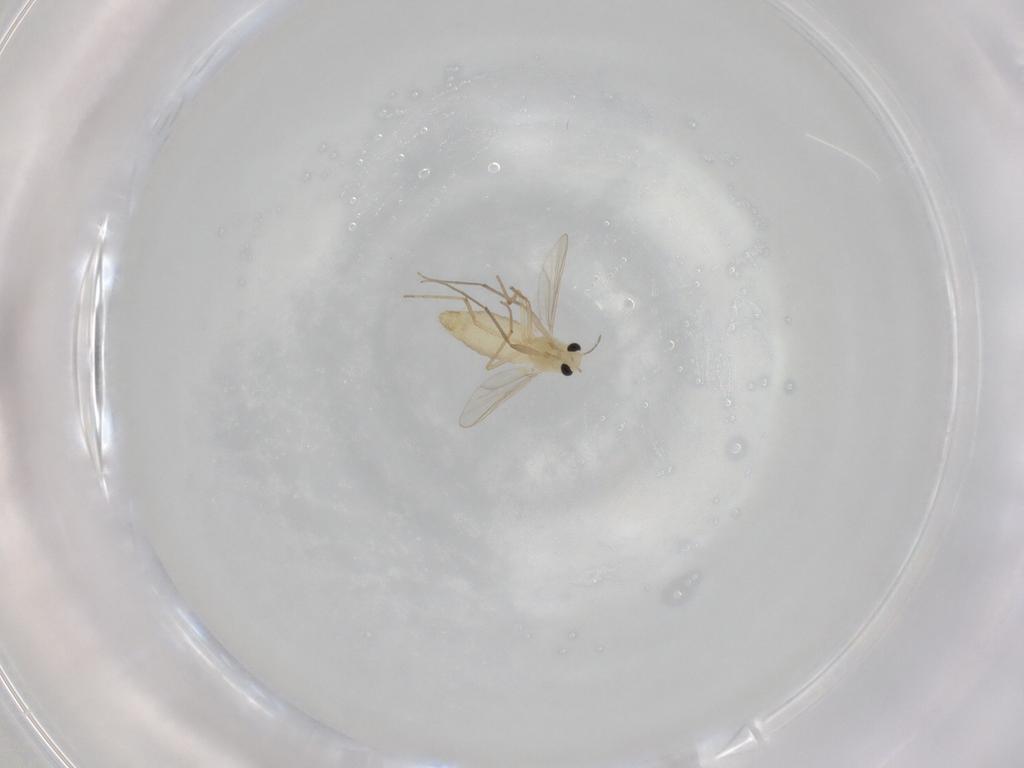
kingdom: Animalia
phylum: Arthropoda
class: Insecta
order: Diptera
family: Chironomidae
